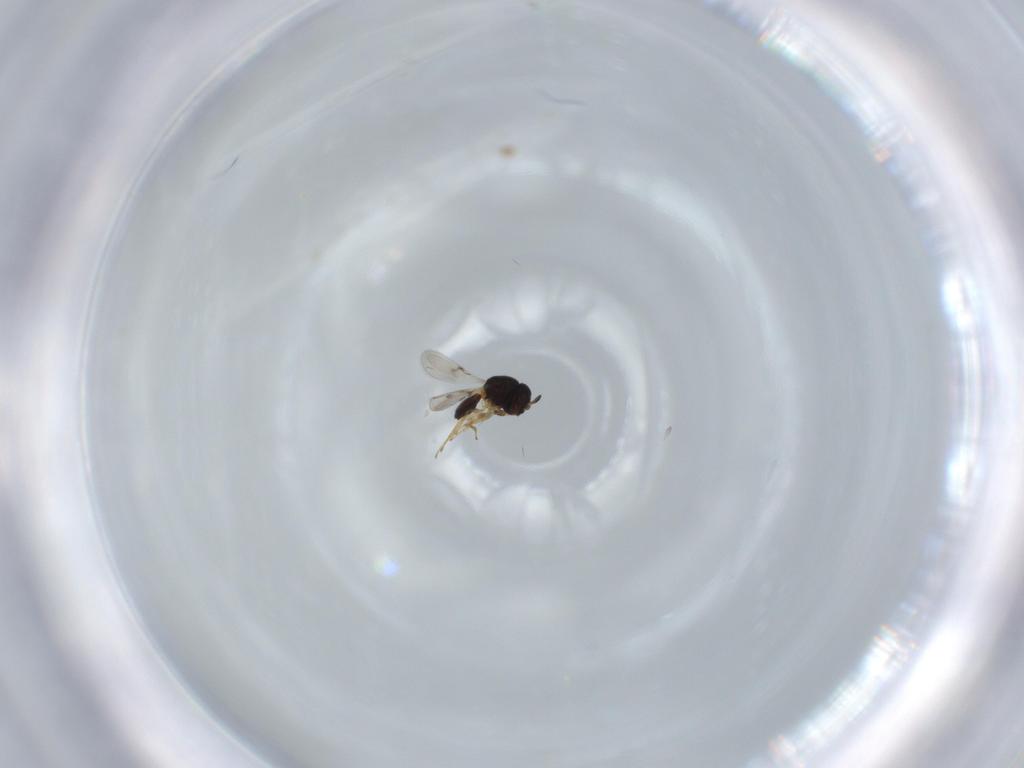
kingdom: Animalia
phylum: Arthropoda
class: Insecta
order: Hymenoptera
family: Scelionidae
